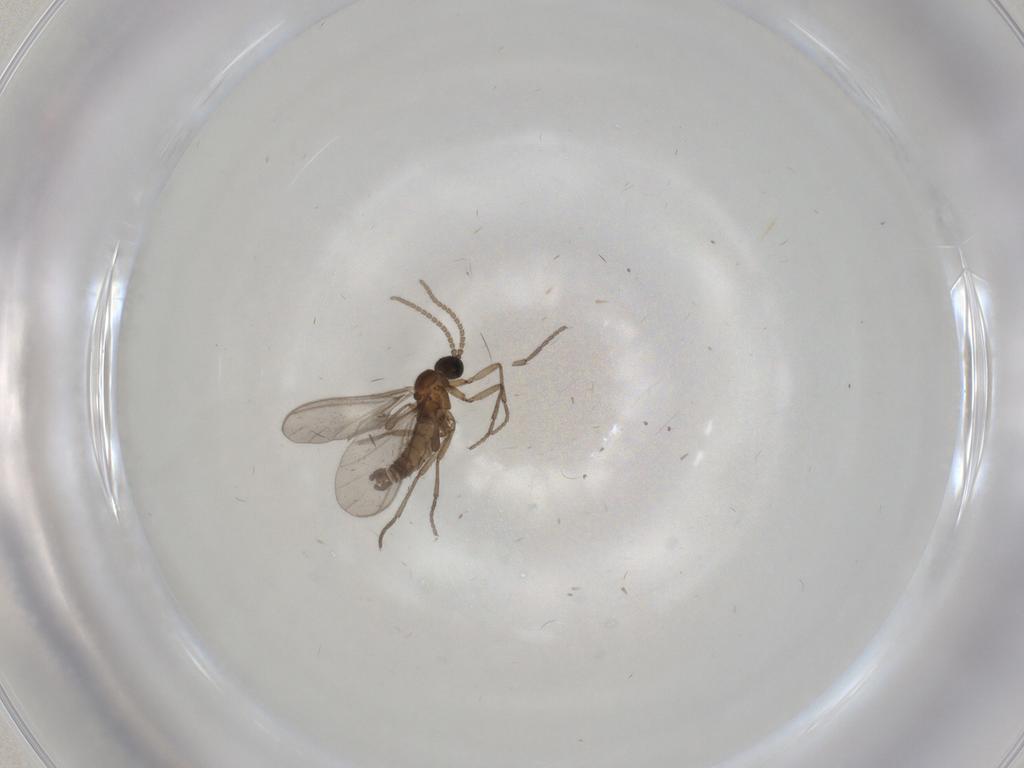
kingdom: Animalia
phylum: Arthropoda
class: Insecta
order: Diptera
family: Sciaridae
